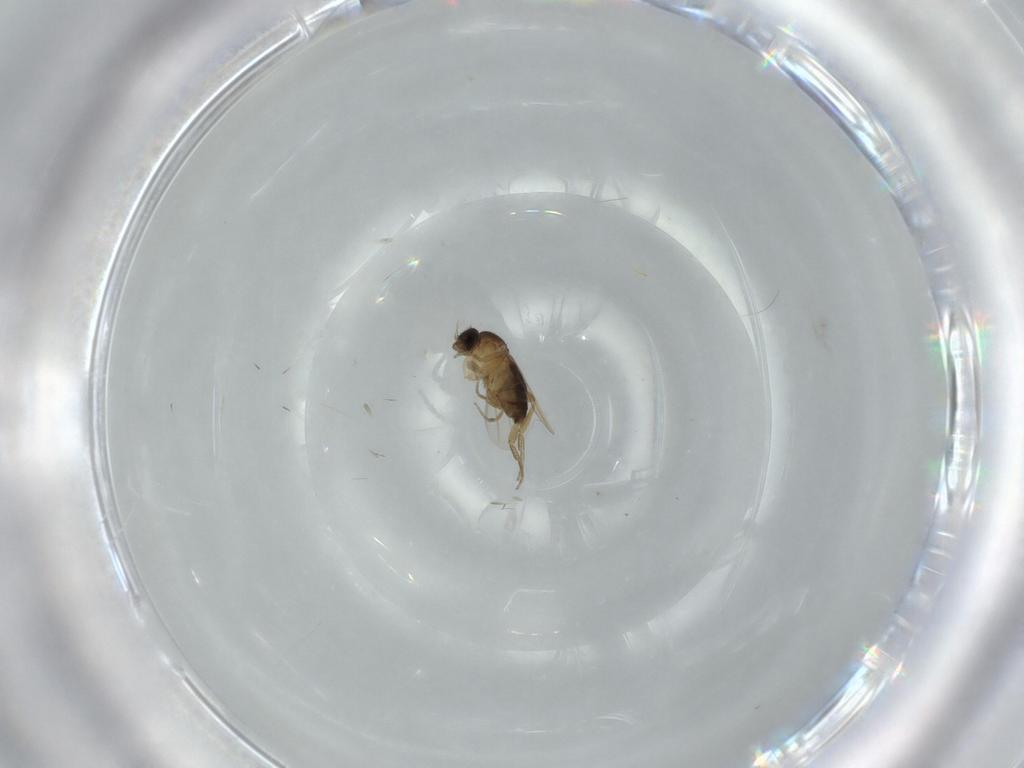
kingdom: Animalia
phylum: Arthropoda
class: Insecta
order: Diptera
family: Phoridae
